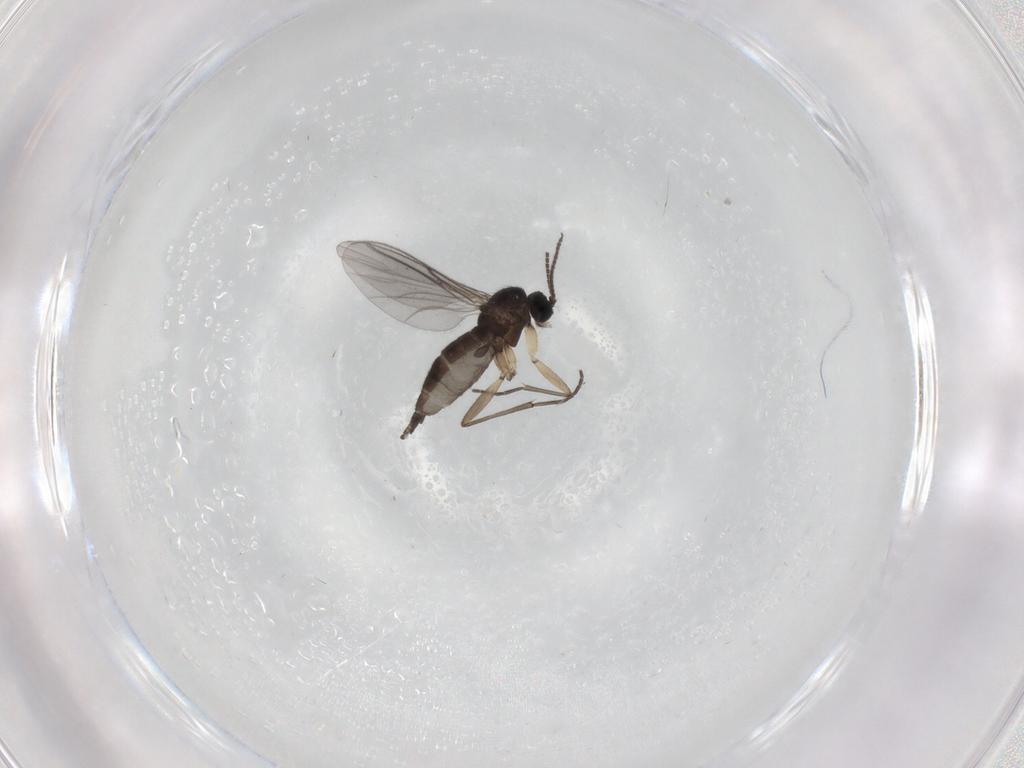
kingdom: Animalia
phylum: Arthropoda
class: Insecta
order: Diptera
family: Sciaridae
